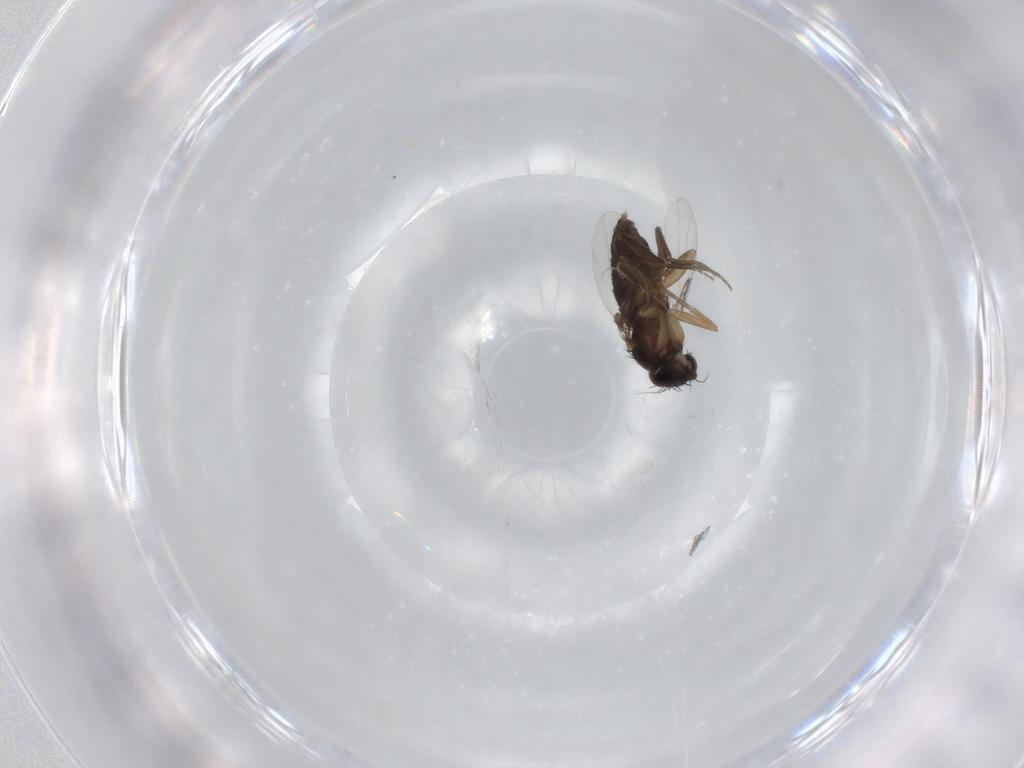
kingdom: Animalia
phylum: Arthropoda
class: Insecta
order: Diptera
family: Phoridae
